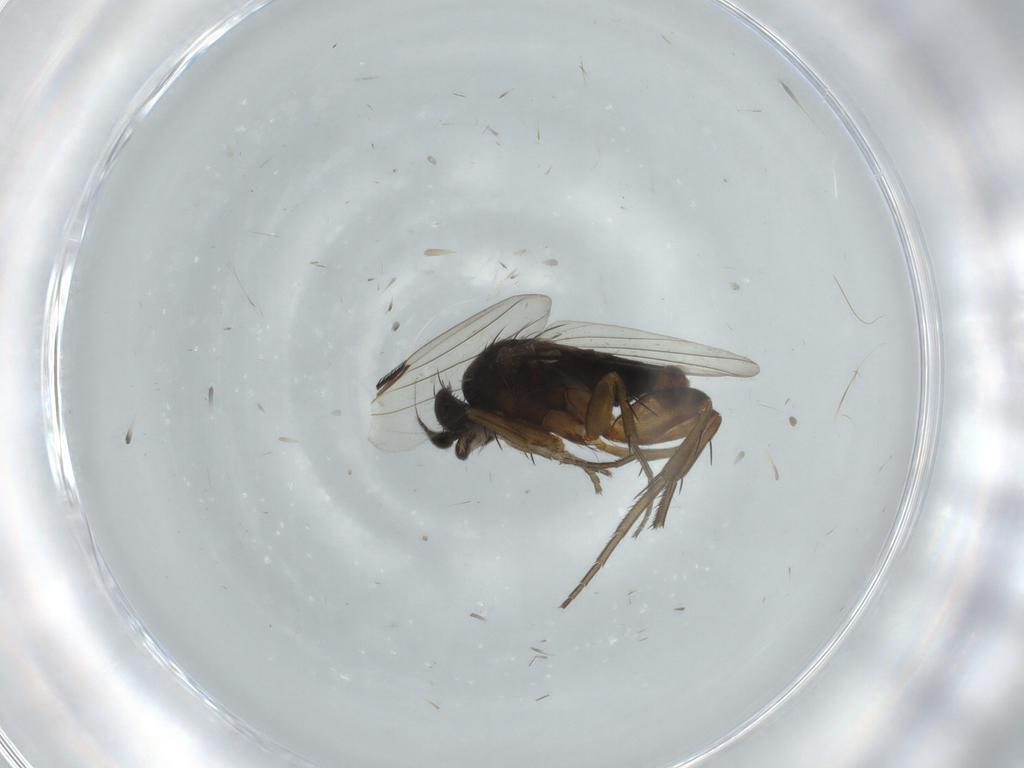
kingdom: Animalia
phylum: Arthropoda
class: Insecta
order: Diptera
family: Phoridae
